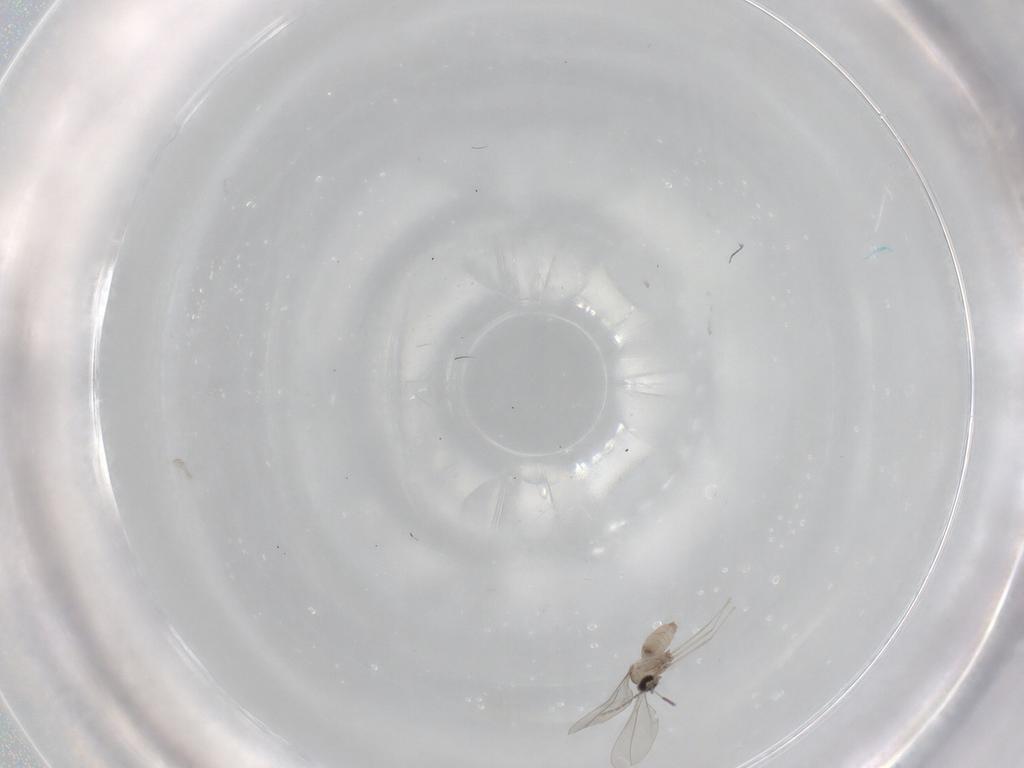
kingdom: Animalia
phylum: Arthropoda
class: Insecta
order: Diptera
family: Cecidomyiidae
